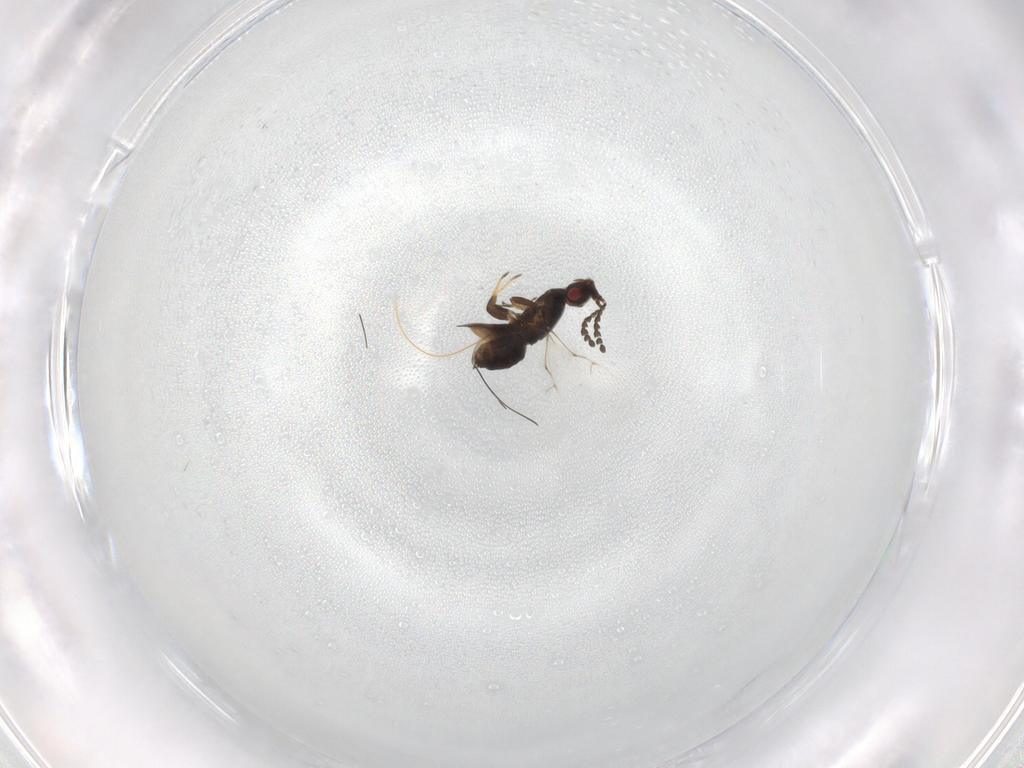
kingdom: Animalia
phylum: Arthropoda
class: Insecta
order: Hymenoptera
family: Agaonidae
